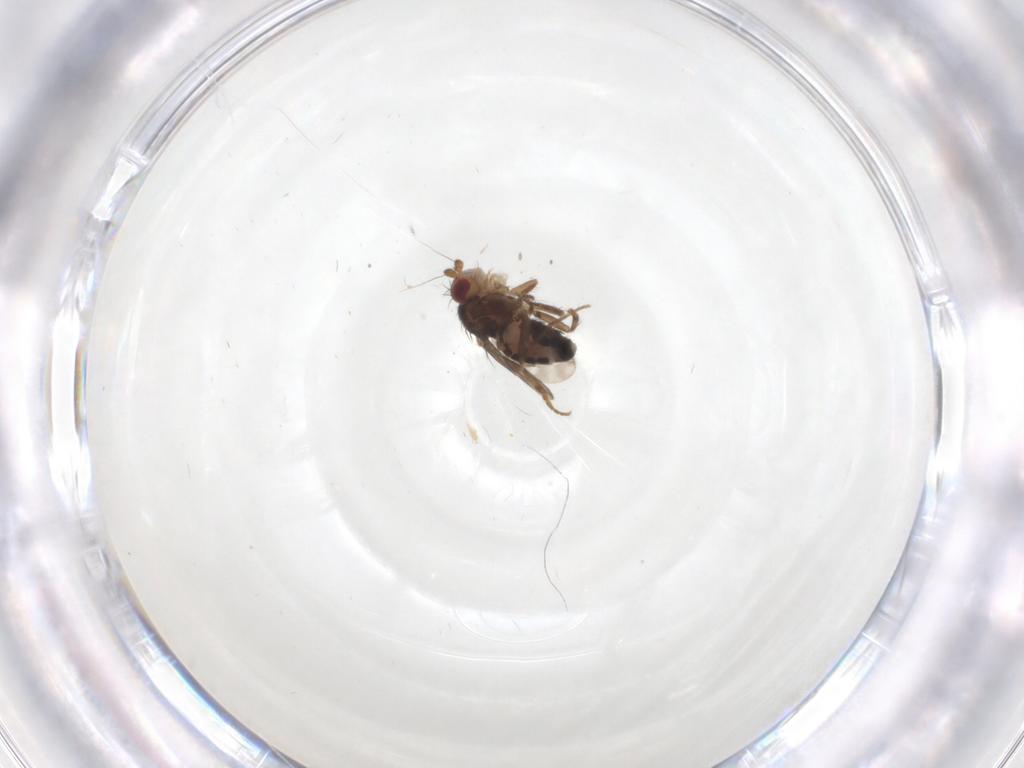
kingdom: Animalia
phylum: Arthropoda
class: Insecta
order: Diptera
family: Sphaeroceridae
